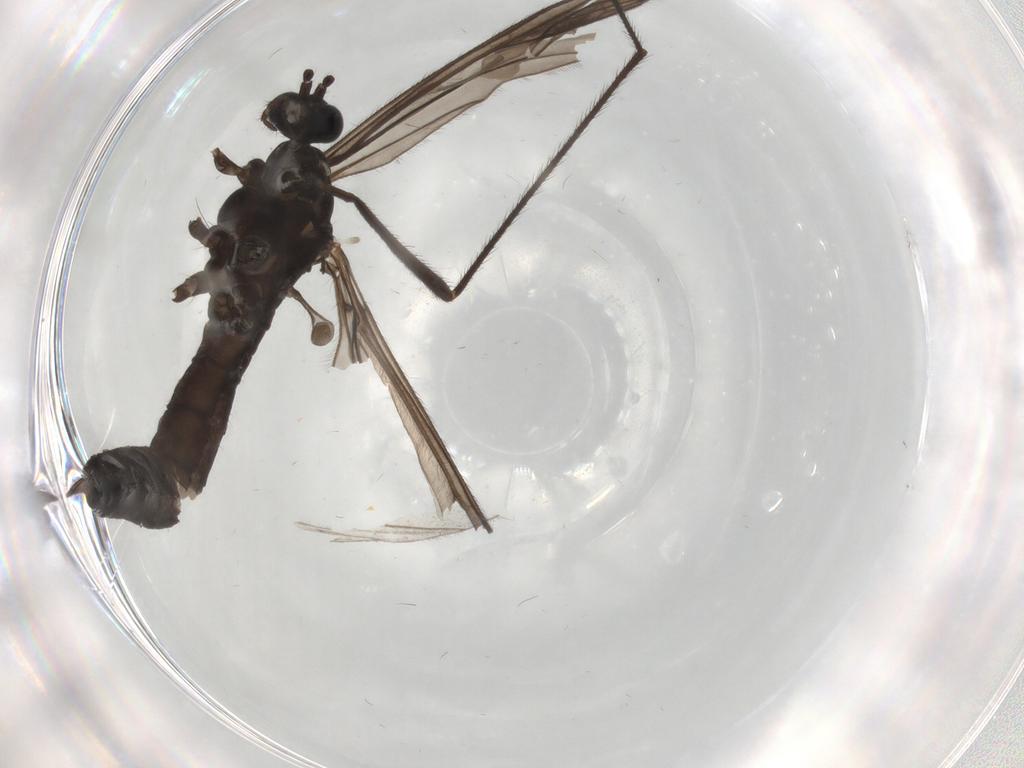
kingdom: Animalia
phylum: Arthropoda
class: Insecta
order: Diptera
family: Limoniidae
